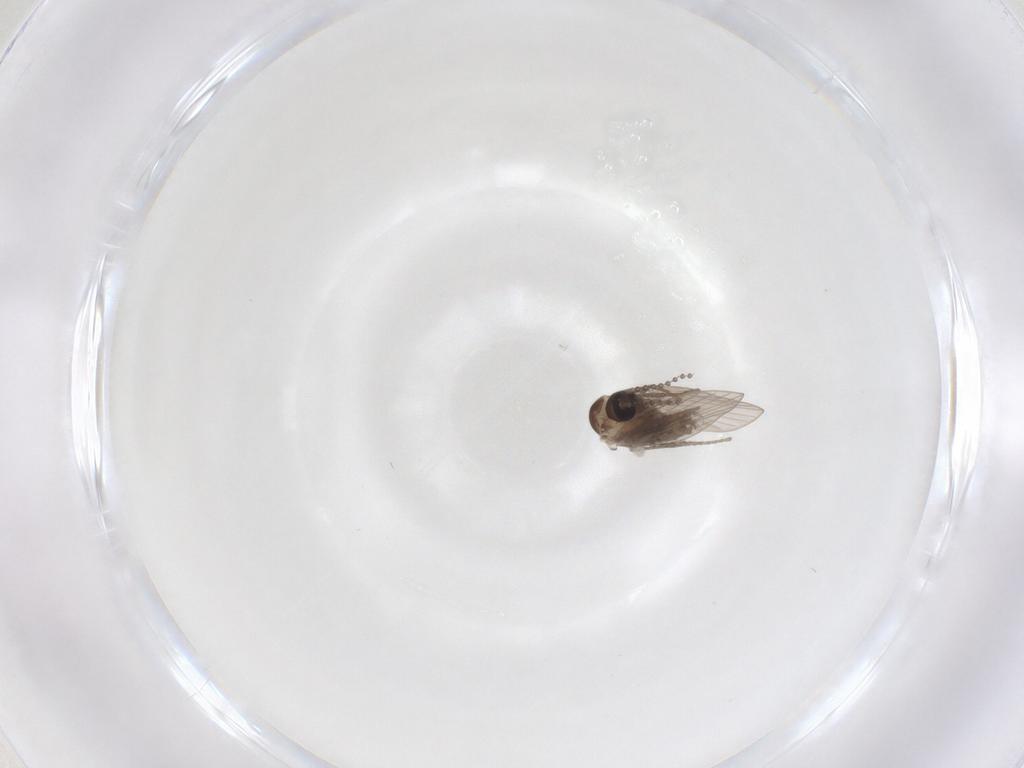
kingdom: Animalia
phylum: Arthropoda
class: Insecta
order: Diptera
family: Psychodidae
